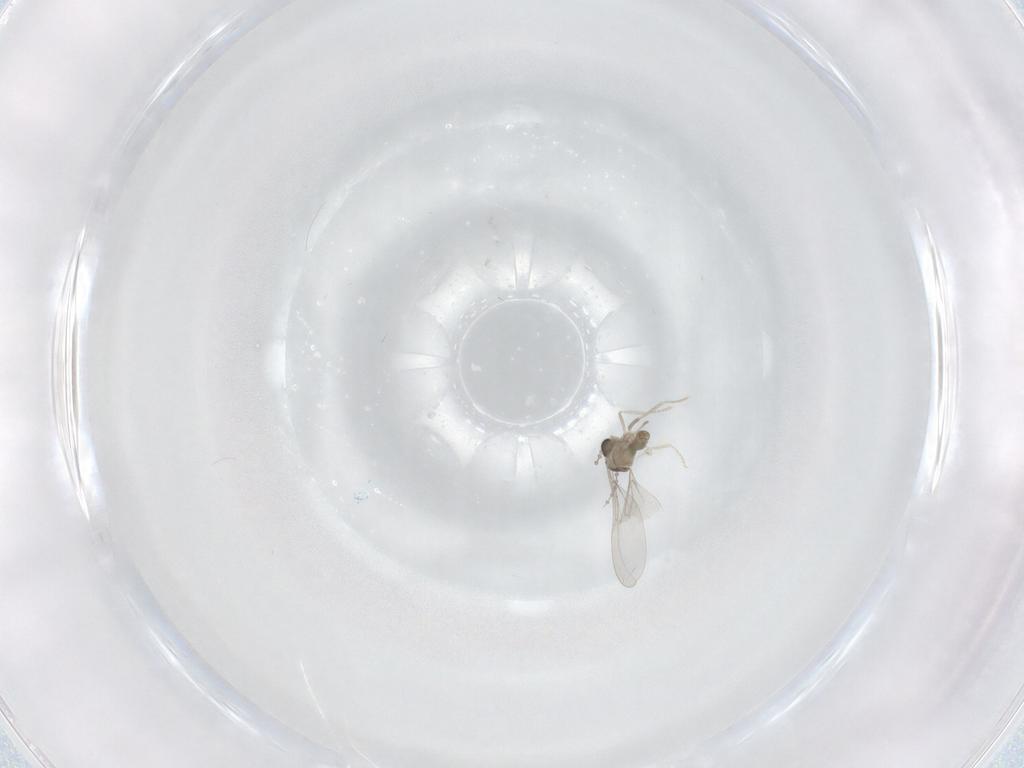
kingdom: Animalia
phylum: Arthropoda
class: Insecta
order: Diptera
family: Cecidomyiidae
